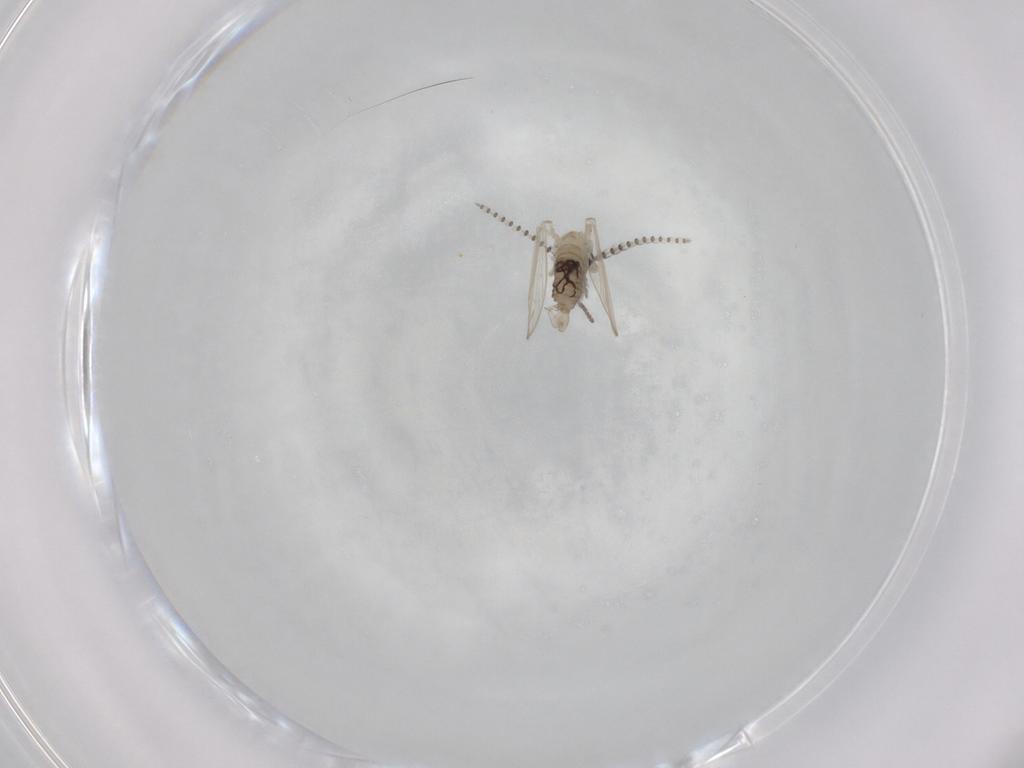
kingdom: Animalia
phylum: Arthropoda
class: Insecta
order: Diptera
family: Psychodidae
